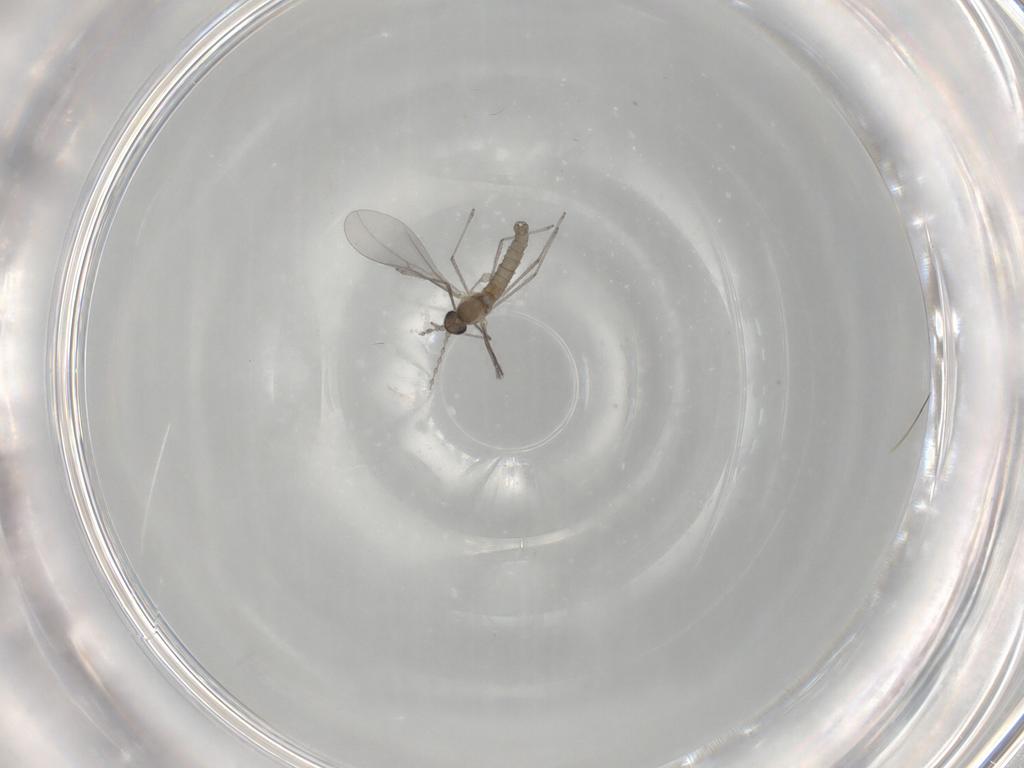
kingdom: Animalia
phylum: Arthropoda
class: Insecta
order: Diptera
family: Cecidomyiidae
